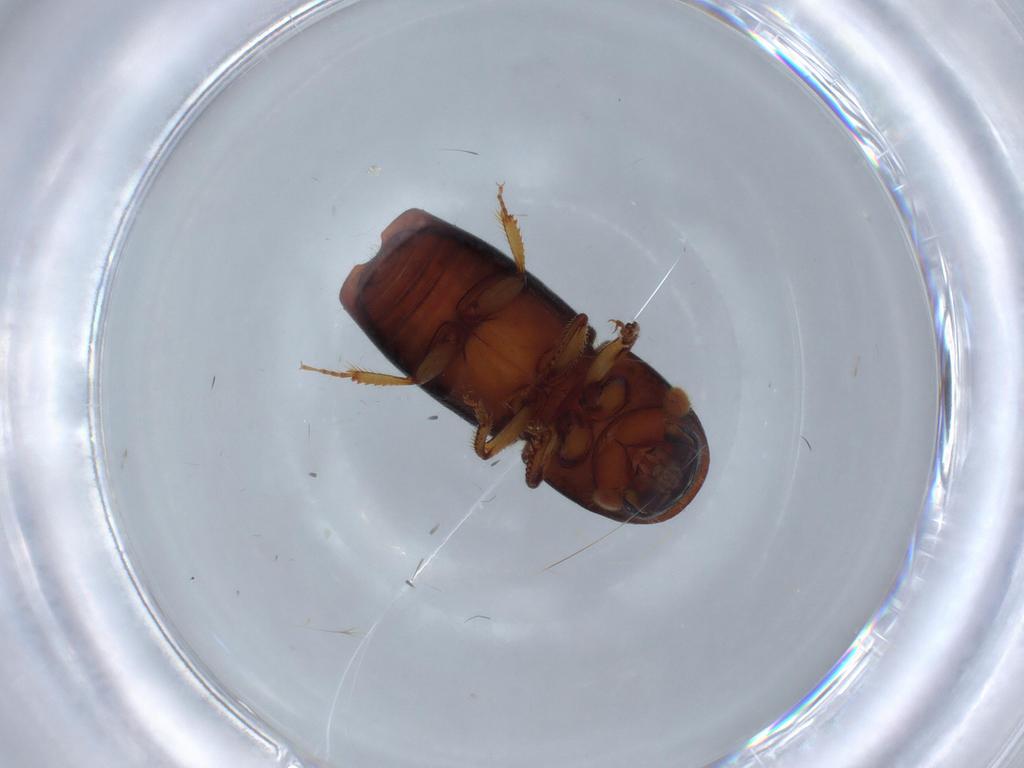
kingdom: Animalia
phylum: Arthropoda
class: Insecta
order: Coleoptera
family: Curculionidae
